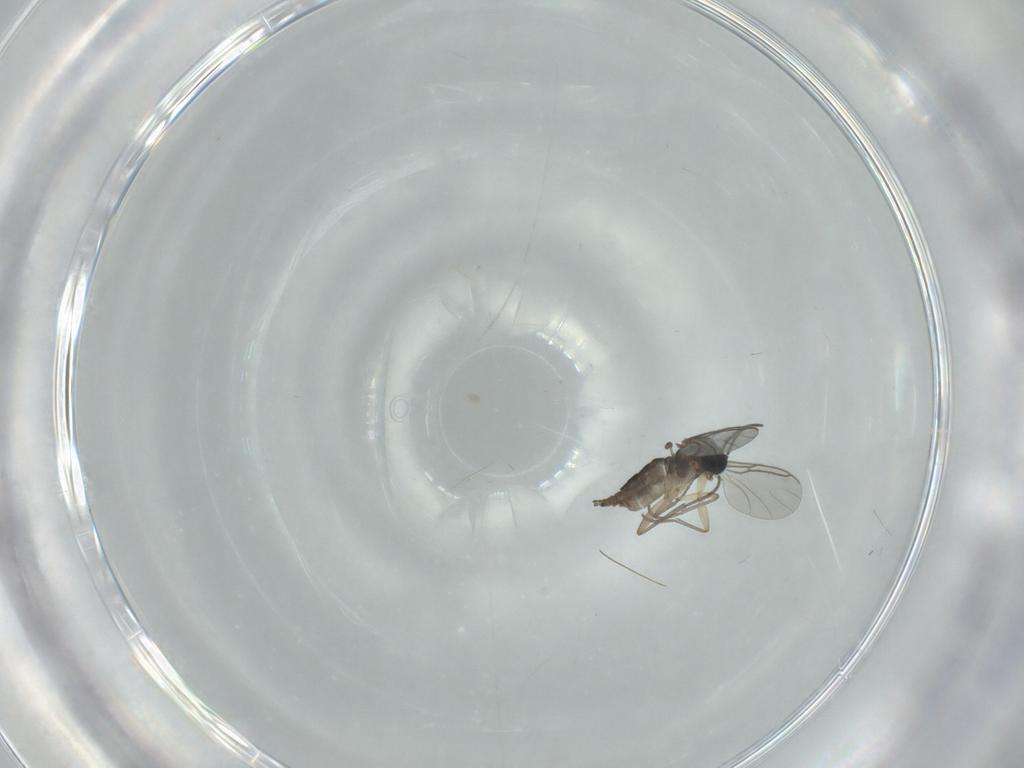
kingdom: Animalia
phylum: Arthropoda
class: Insecta
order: Diptera
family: Sciaridae
